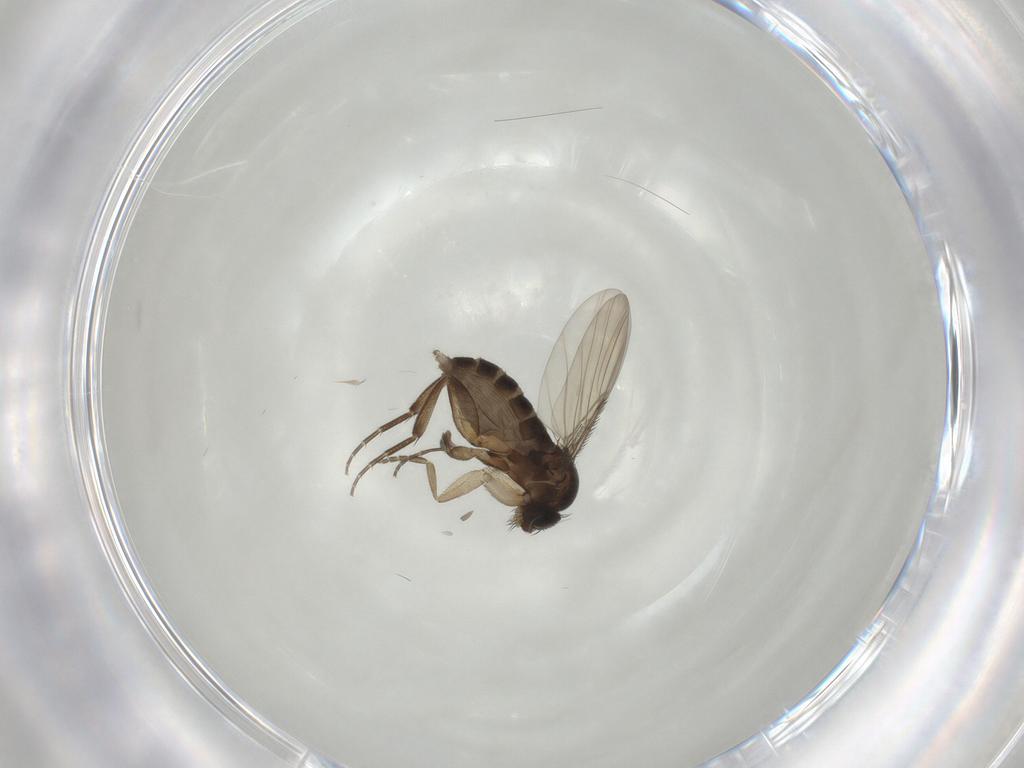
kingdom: Animalia
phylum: Arthropoda
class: Insecta
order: Diptera
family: Phoridae
